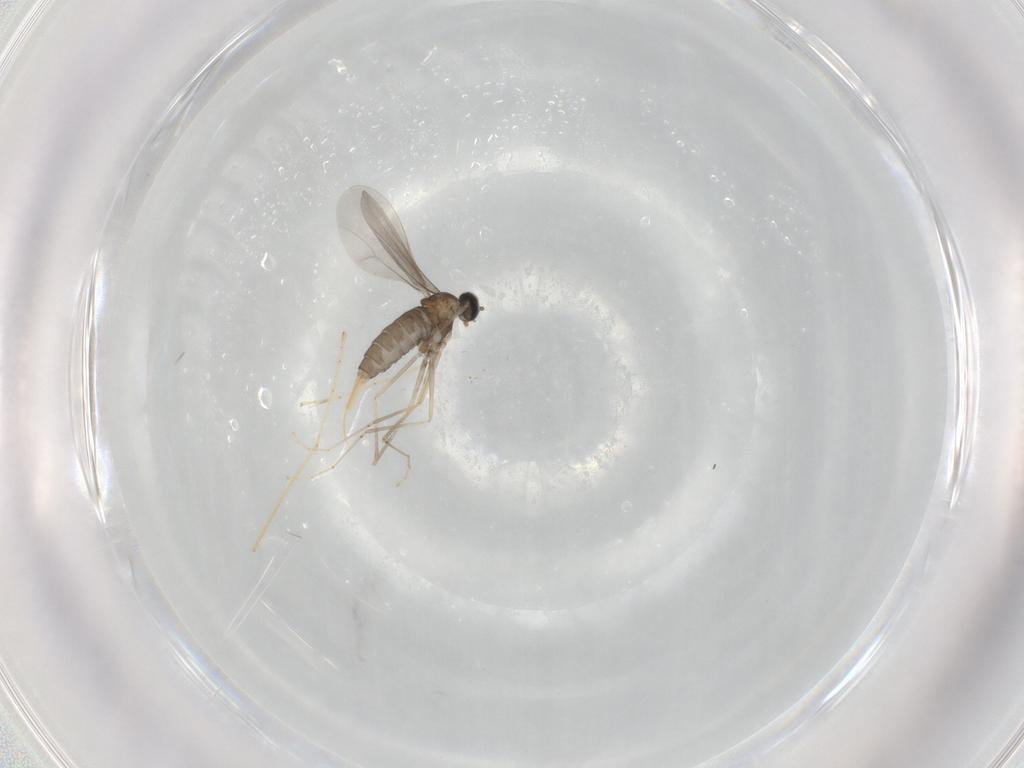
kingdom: Animalia
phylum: Arthropoda
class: Insecta
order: Diptera
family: Cecidomyiidae
